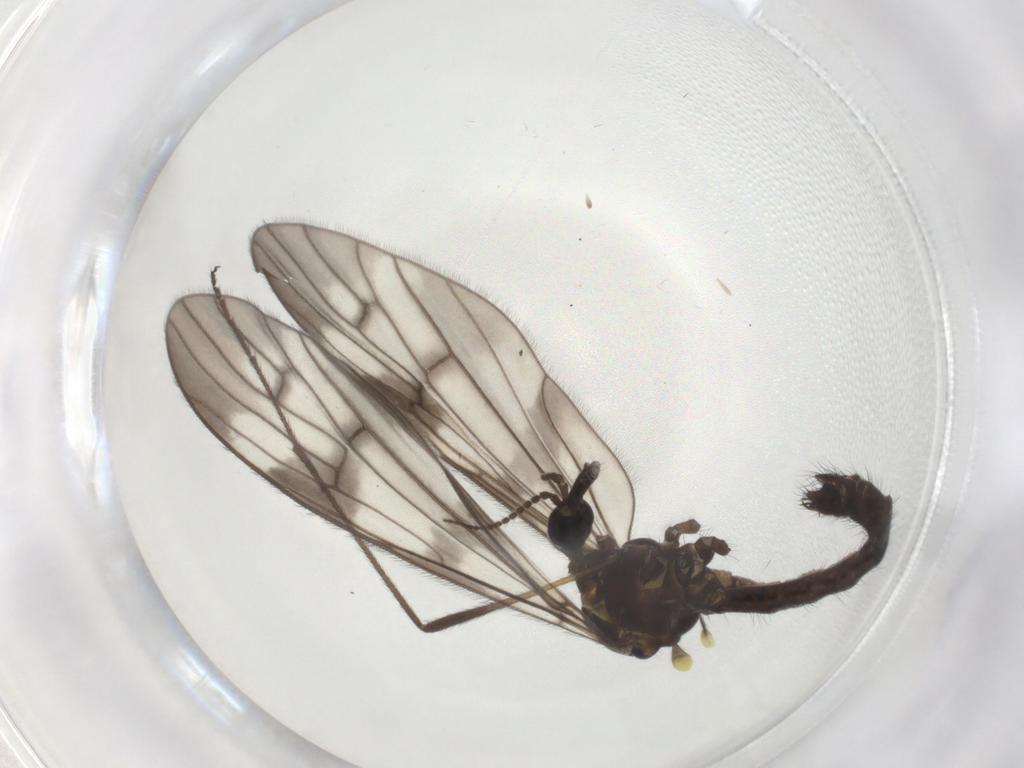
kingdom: Animalia
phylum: Arthropoda
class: Insecta
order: Diptera
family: Limoniidae
